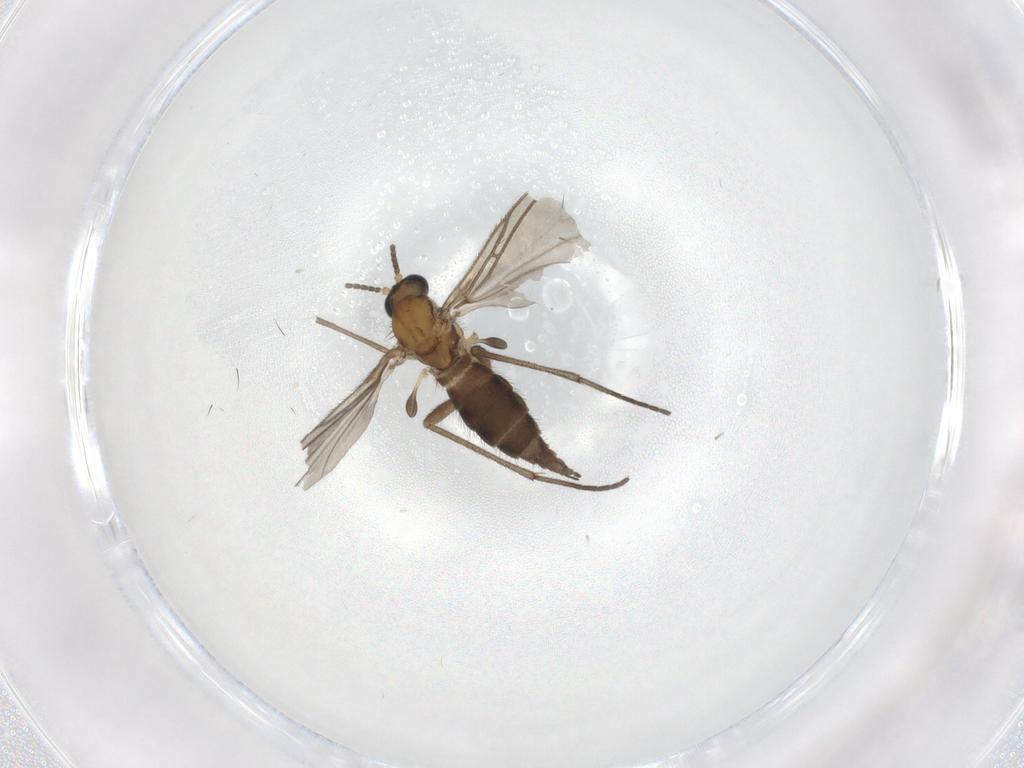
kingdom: Animalia
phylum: Arthropoda
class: Insecta
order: Diptera
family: Sciaridae
